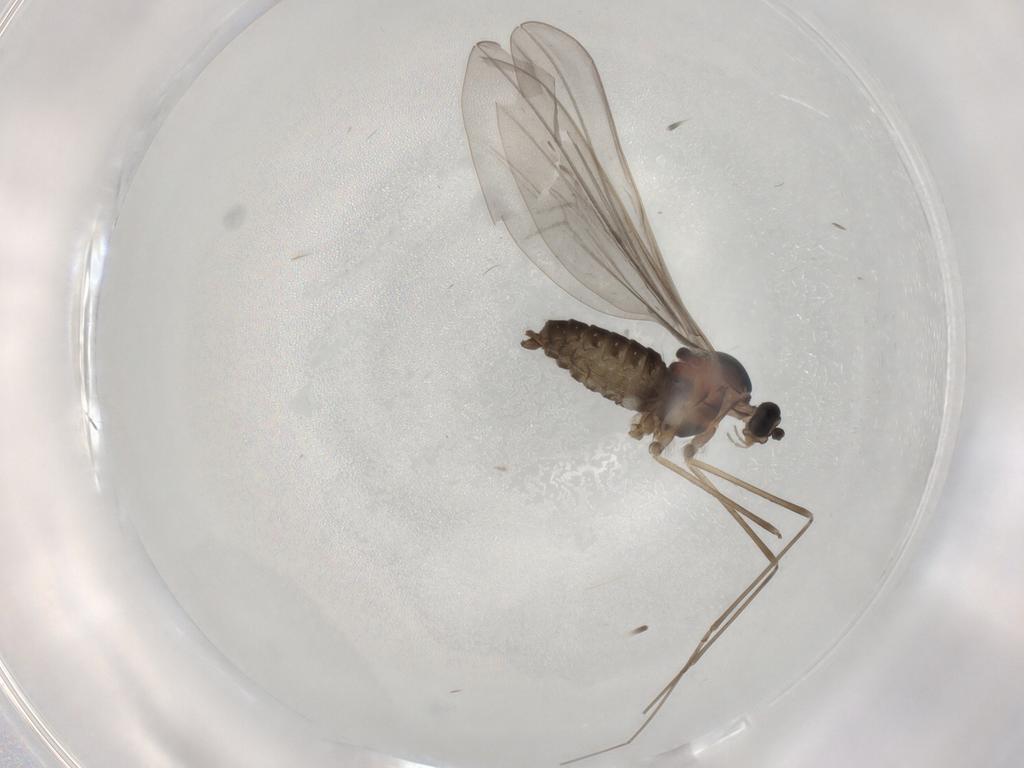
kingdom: Animalia
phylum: Arthropoda
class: Insecta
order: Diptera
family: Cecidomyiidae
